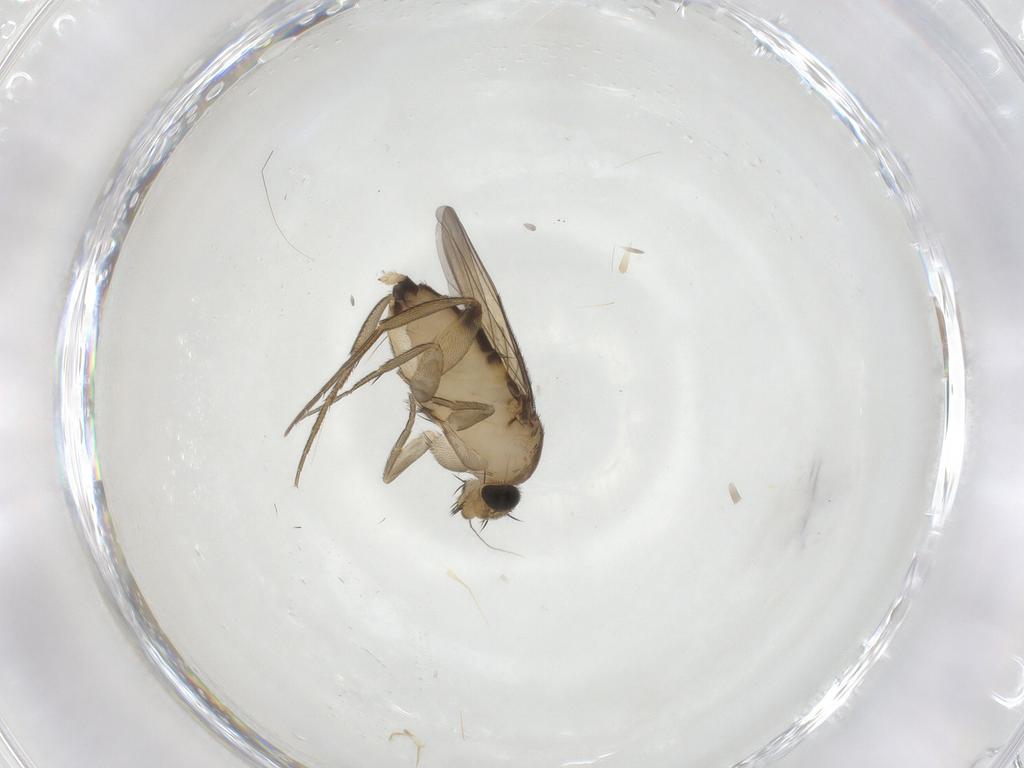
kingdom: Animalia
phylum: Arthropoda
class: Insecta
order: Diptera
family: Phoridae
